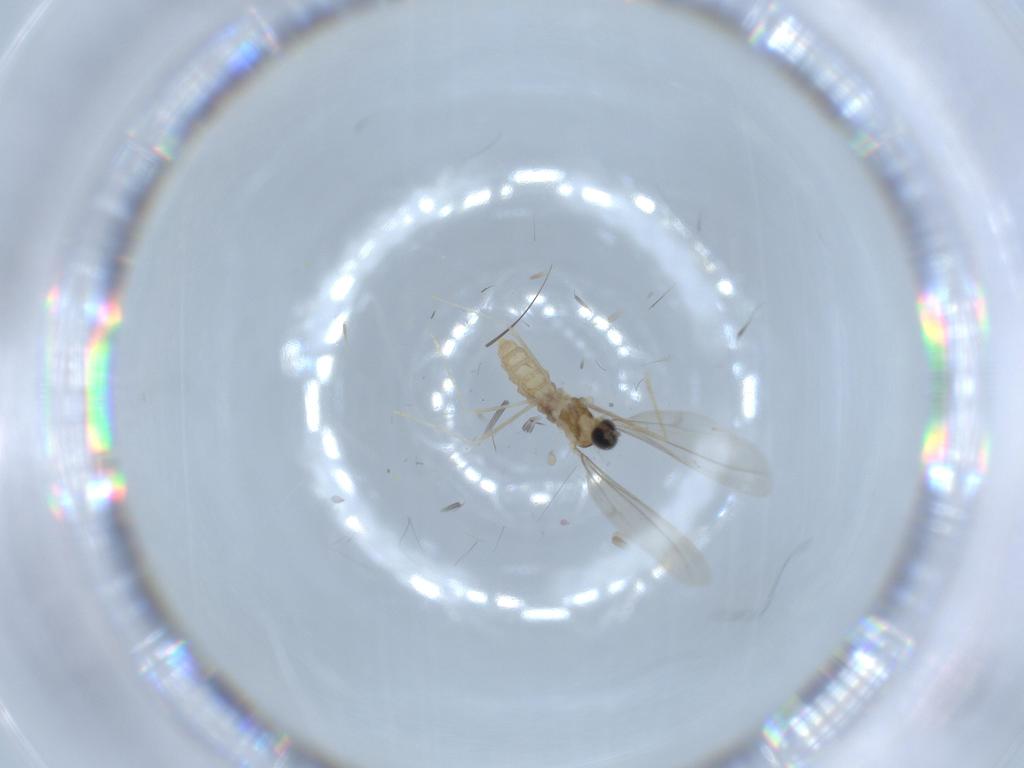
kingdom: Animalia
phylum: Arthropoda
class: Insecta
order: Diptera
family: Cecidomyiidae
